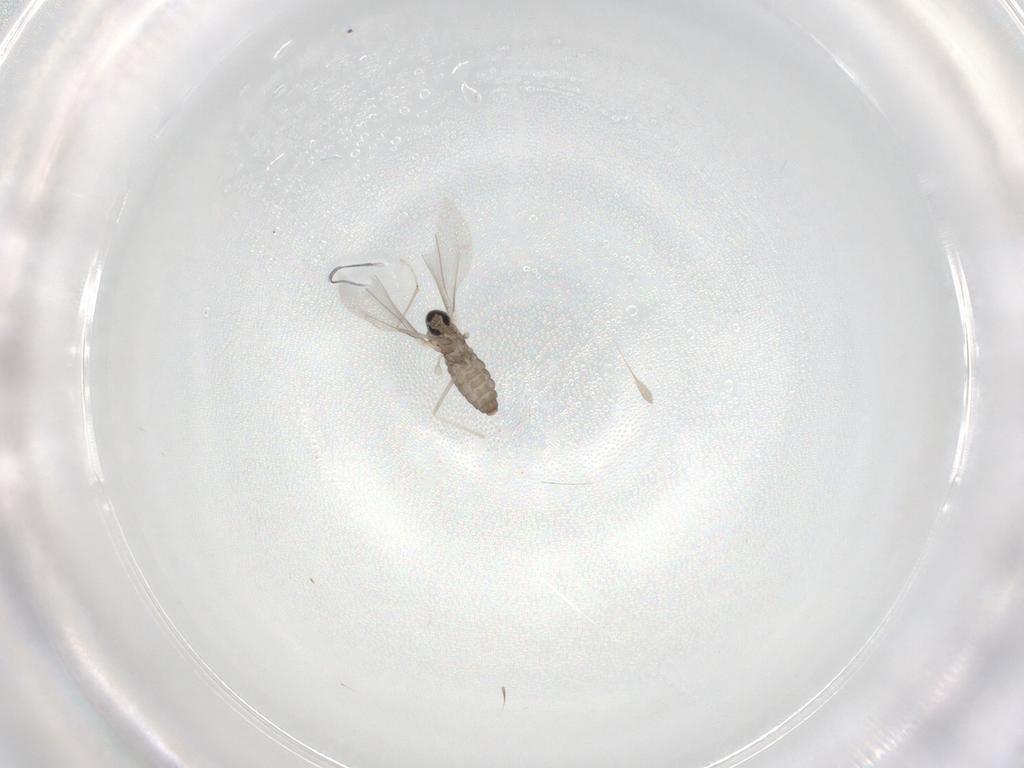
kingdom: Animalia
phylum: Arthropoda
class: Insecta
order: Diptera
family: Cecidomyiidae
